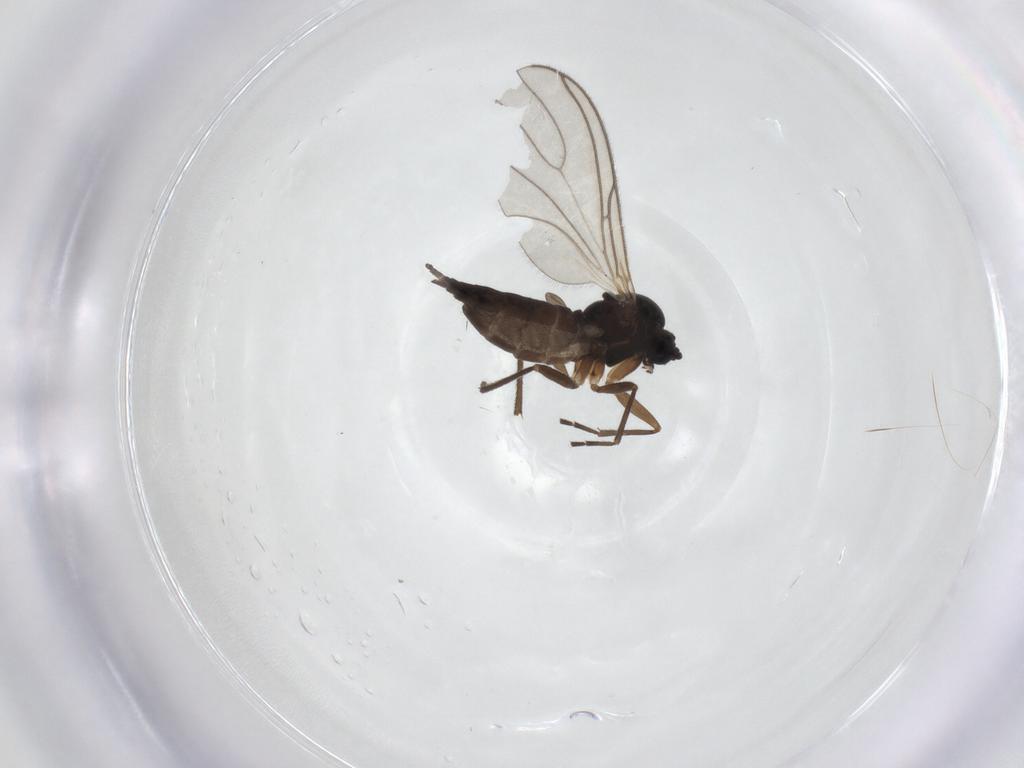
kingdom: Animalia
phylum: Arthropoda
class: Insecta
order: Diptera
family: Sciaridae
